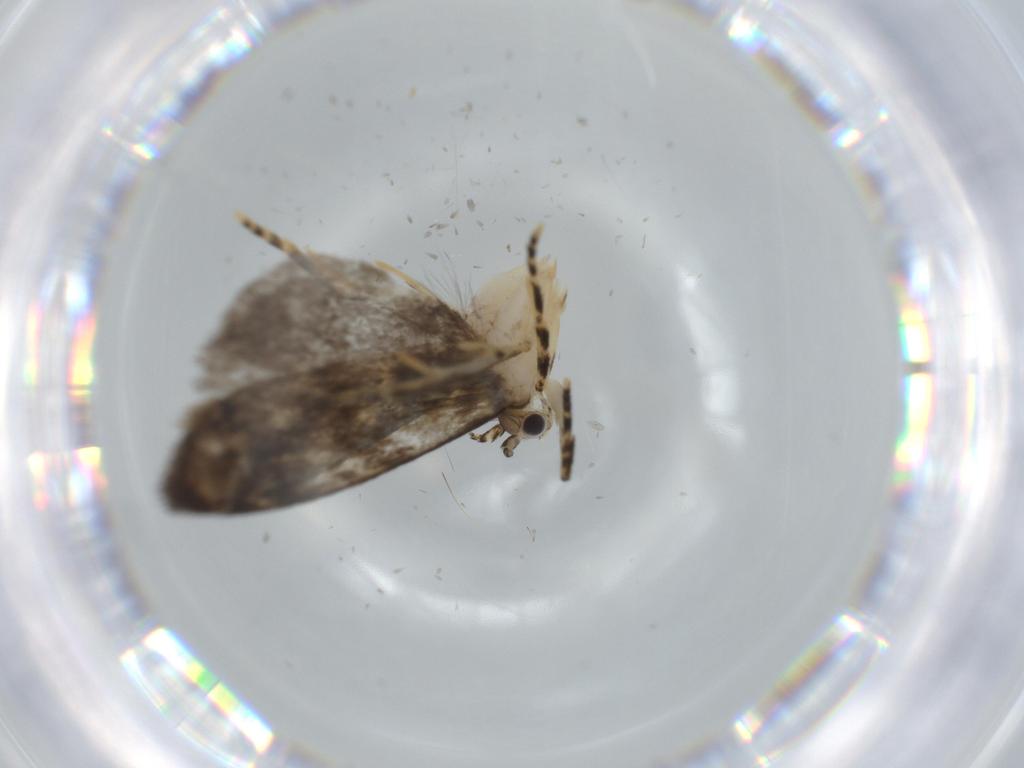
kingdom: Animalia
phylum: Arthropoda
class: Insecta
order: Lepidoptera
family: Tineidae
